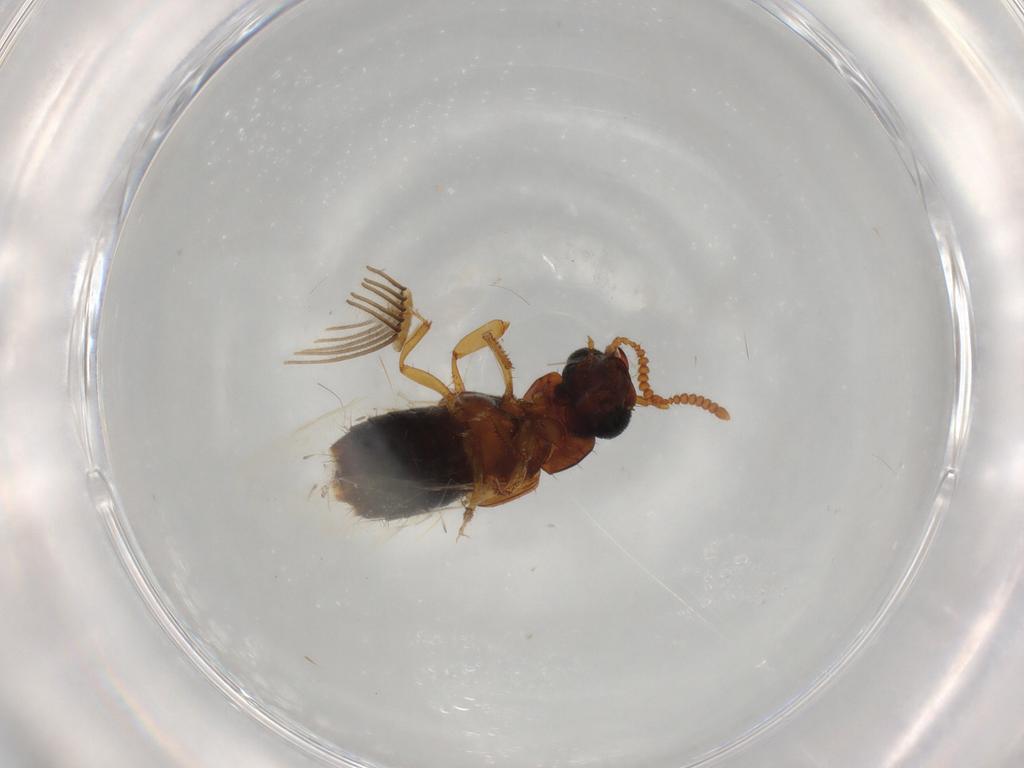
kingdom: Animalia
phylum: Arthropoda
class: Insecta
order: Coleoptera
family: Staphylinidae
